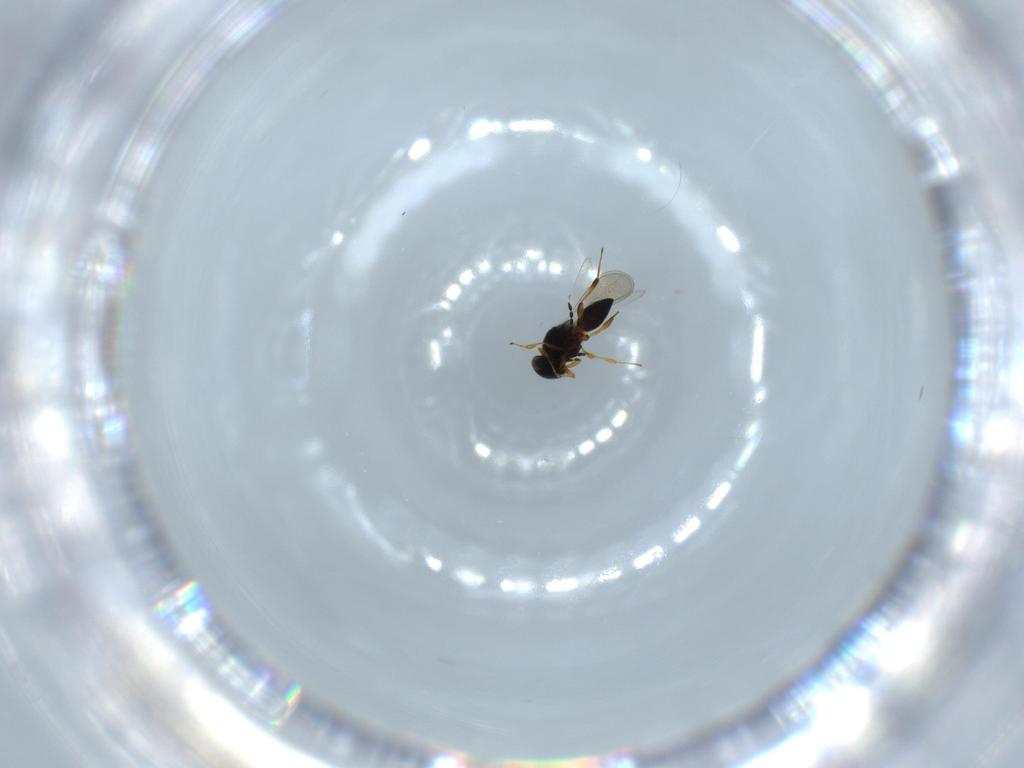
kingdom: Animalia
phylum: Arthropoda
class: Insecta
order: Hymenoptera
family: Platygastridae
